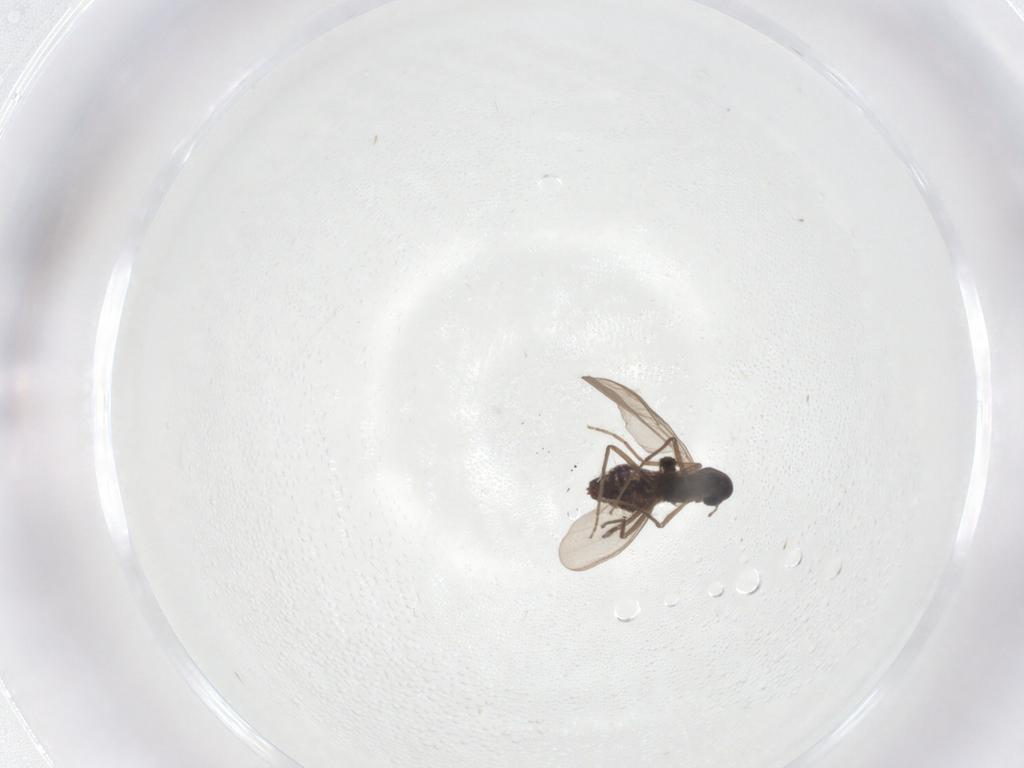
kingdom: Animalia
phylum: Arthropoda
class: Insecta
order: Diptera
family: Chironomidae
